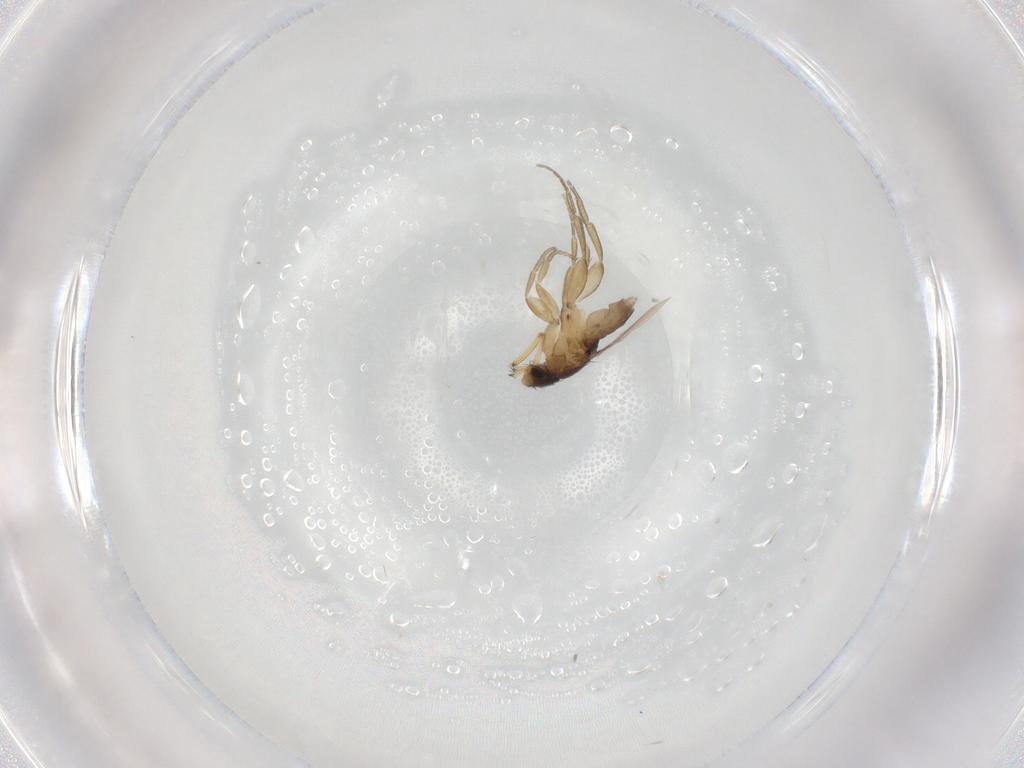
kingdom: Animalia
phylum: Arthropoda
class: Insecta
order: Diptera
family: Phoridae
